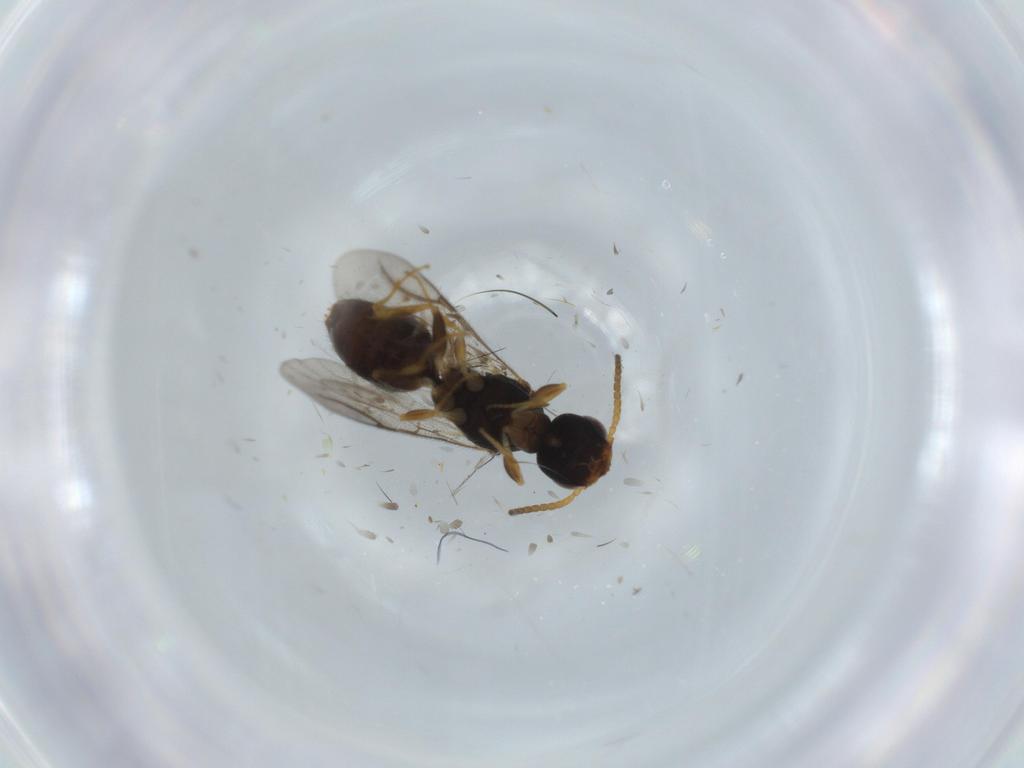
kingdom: Animalia
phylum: Arthropoda
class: Insecta
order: Hymenoptera
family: Bethylidae
